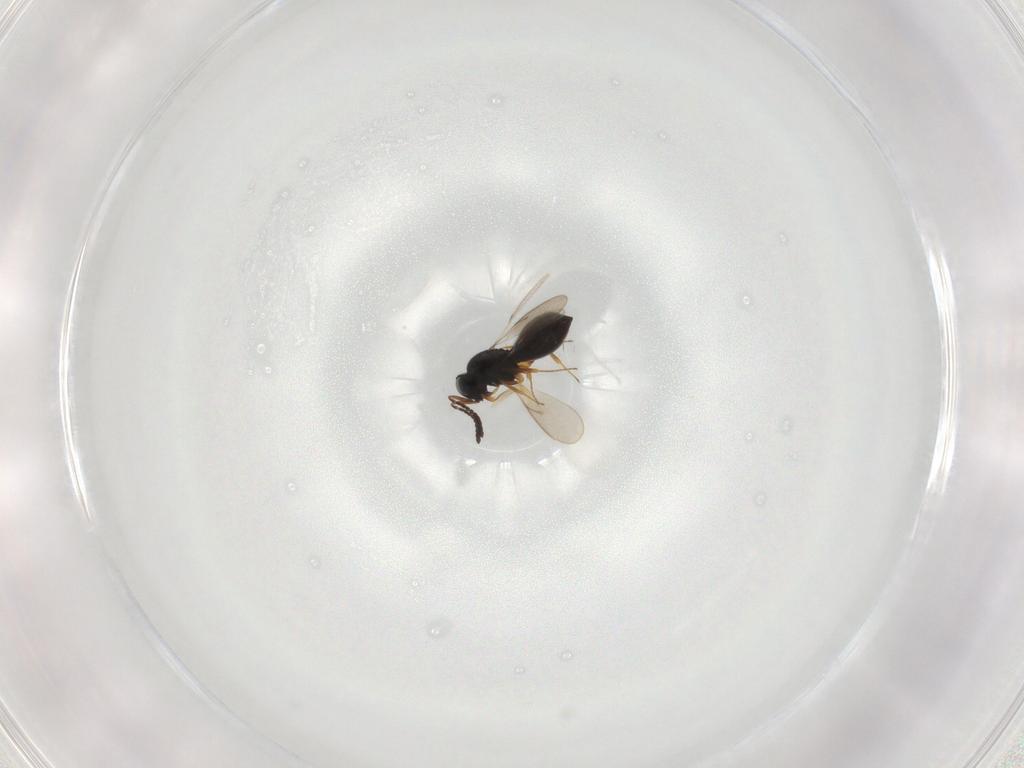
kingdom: Animalia
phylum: Arthropoda
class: Insecta
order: Hymenoptera
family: Scelionidae
